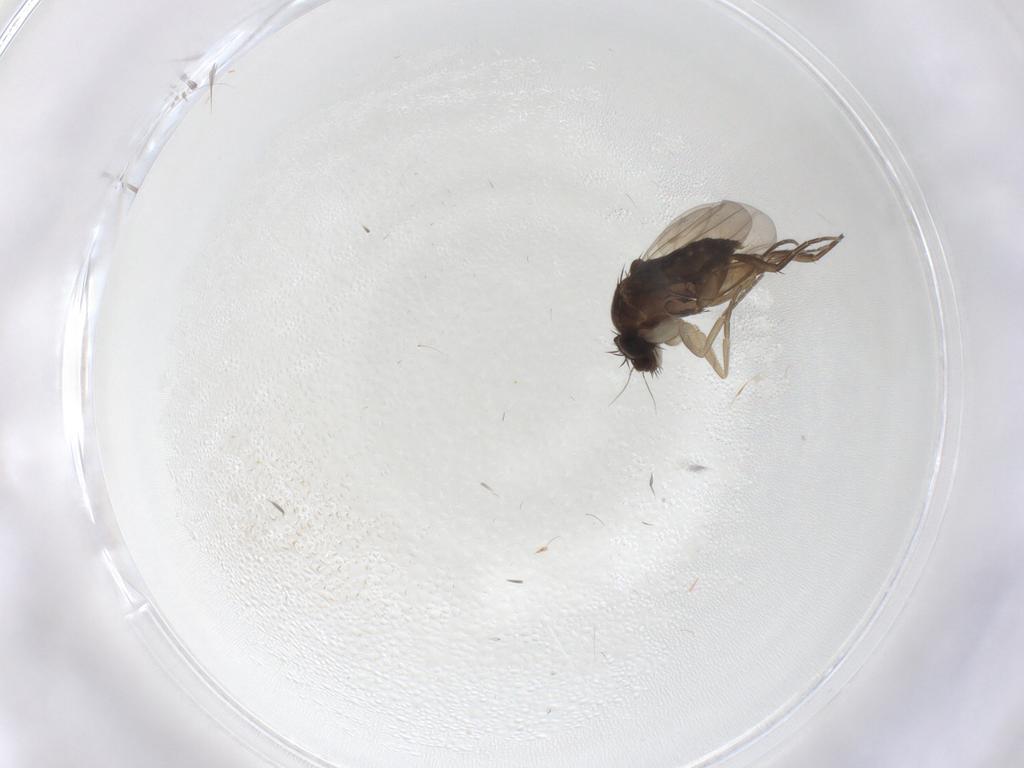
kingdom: Animalia
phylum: Arthropoda
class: Insecta
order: Diptera
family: Phoridae
